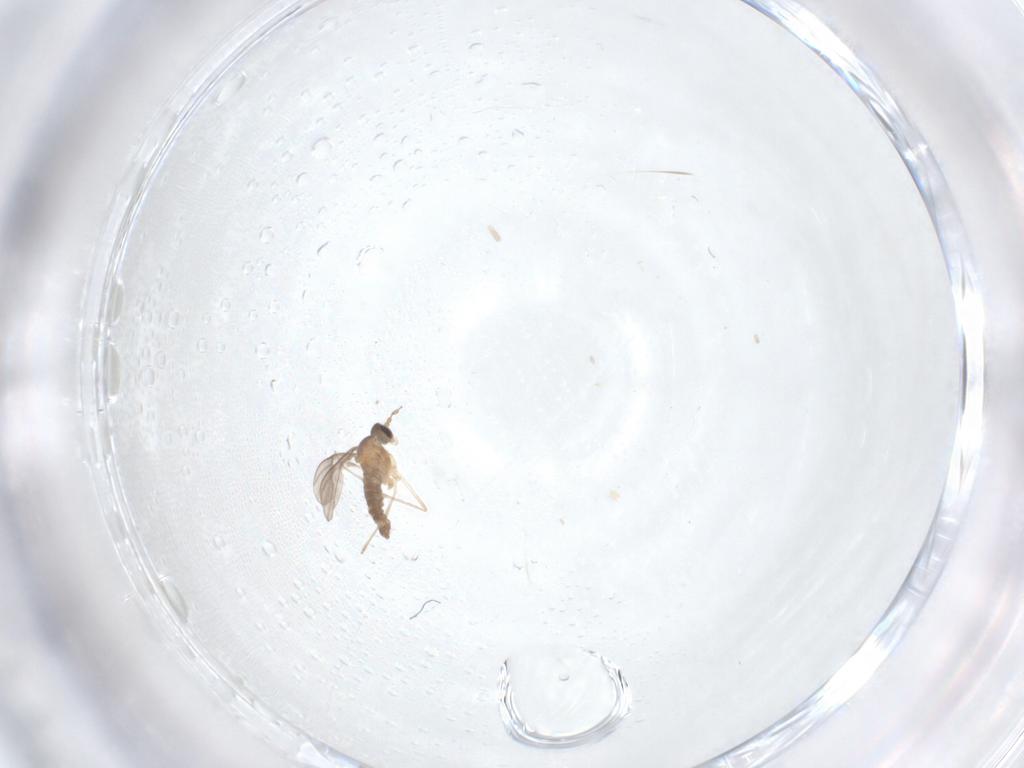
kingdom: Animalia
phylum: Arthropoda
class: Insecta
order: Diptera
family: Cecidomyiidae
